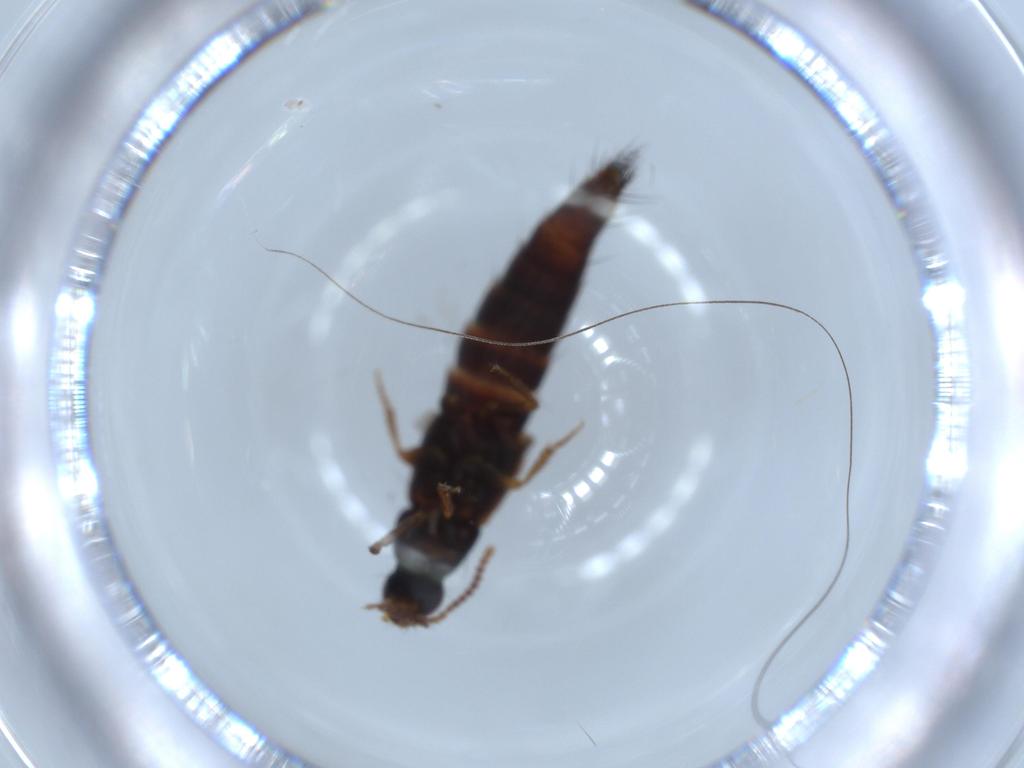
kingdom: Animalia
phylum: Arthropoda
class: Insecta
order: Coleoptera
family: Staphylinidae
